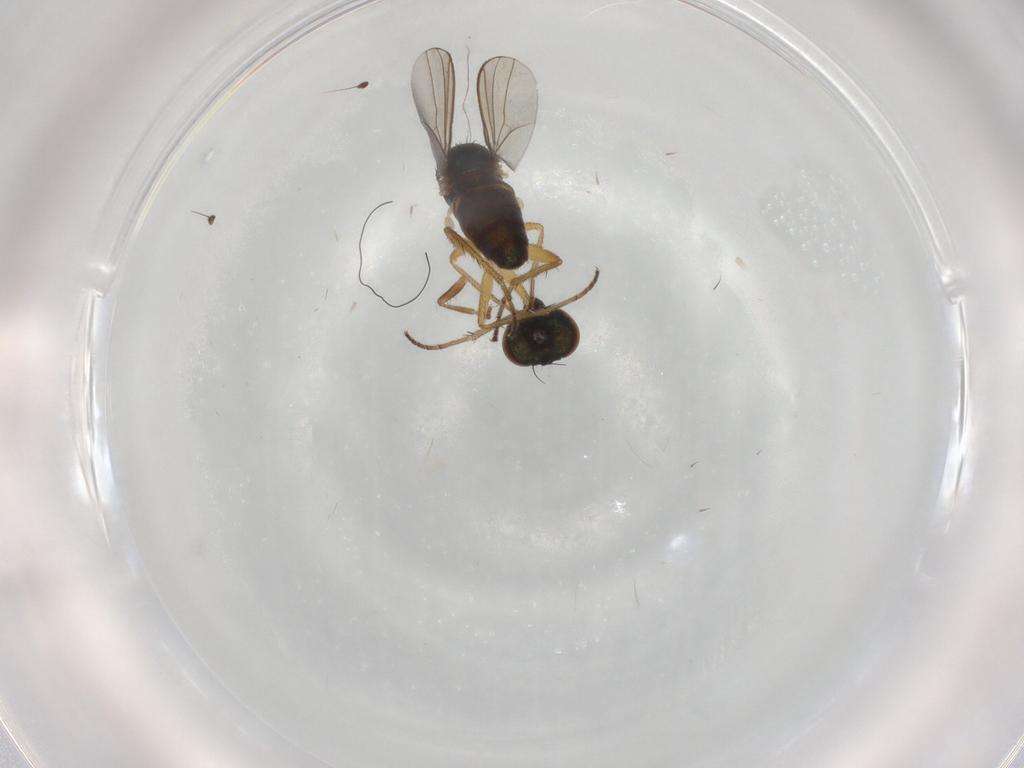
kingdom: Animalia
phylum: Arthropoda
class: Insecta
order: Diptera
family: Dolichopodidae
